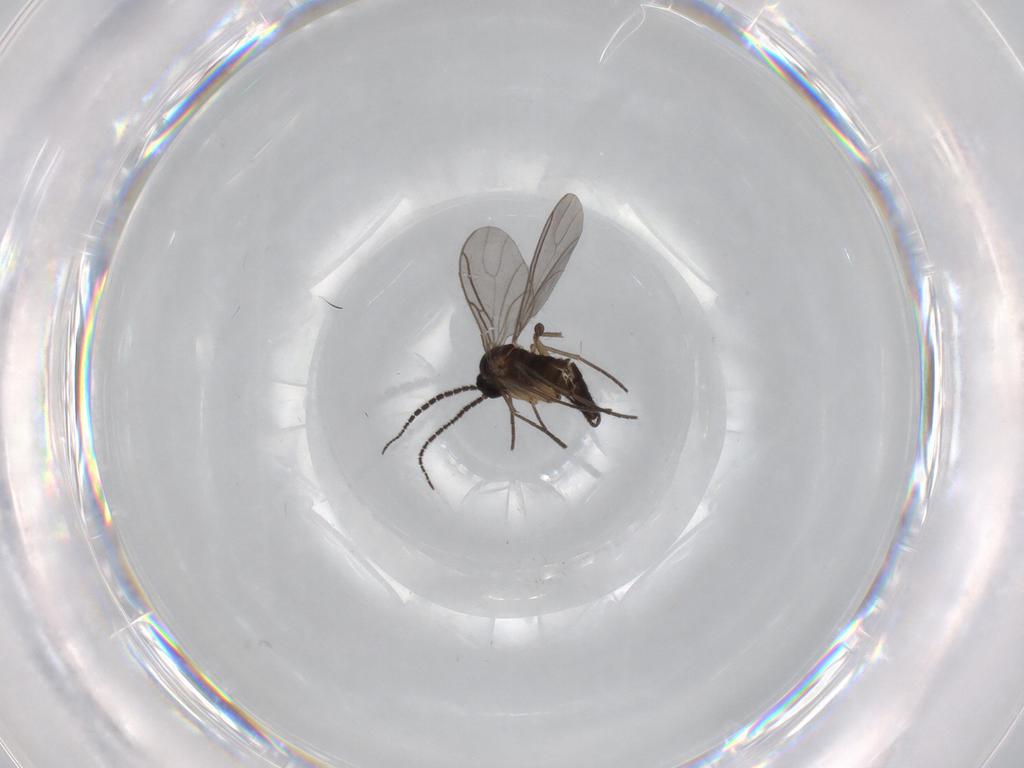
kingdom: Animalia
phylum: Arthropoda
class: Insecta
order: Diptera
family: Sciaridae
